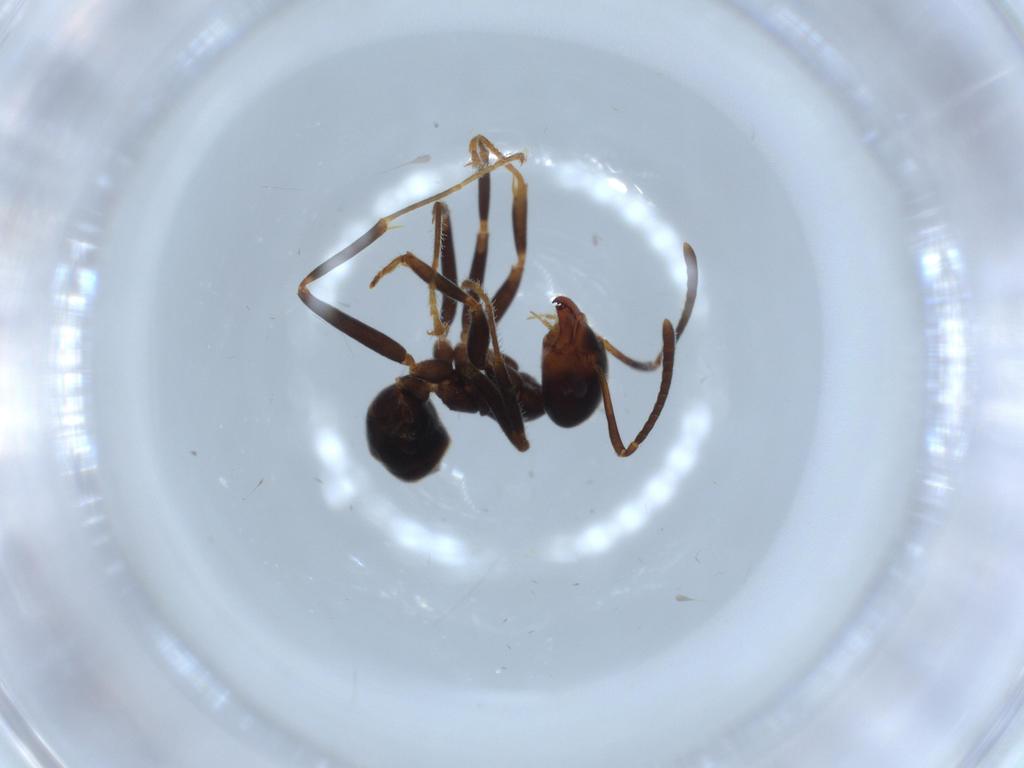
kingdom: Animalia
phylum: Arthropoda
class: Insecta
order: Hymenoptera
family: Formicidae
